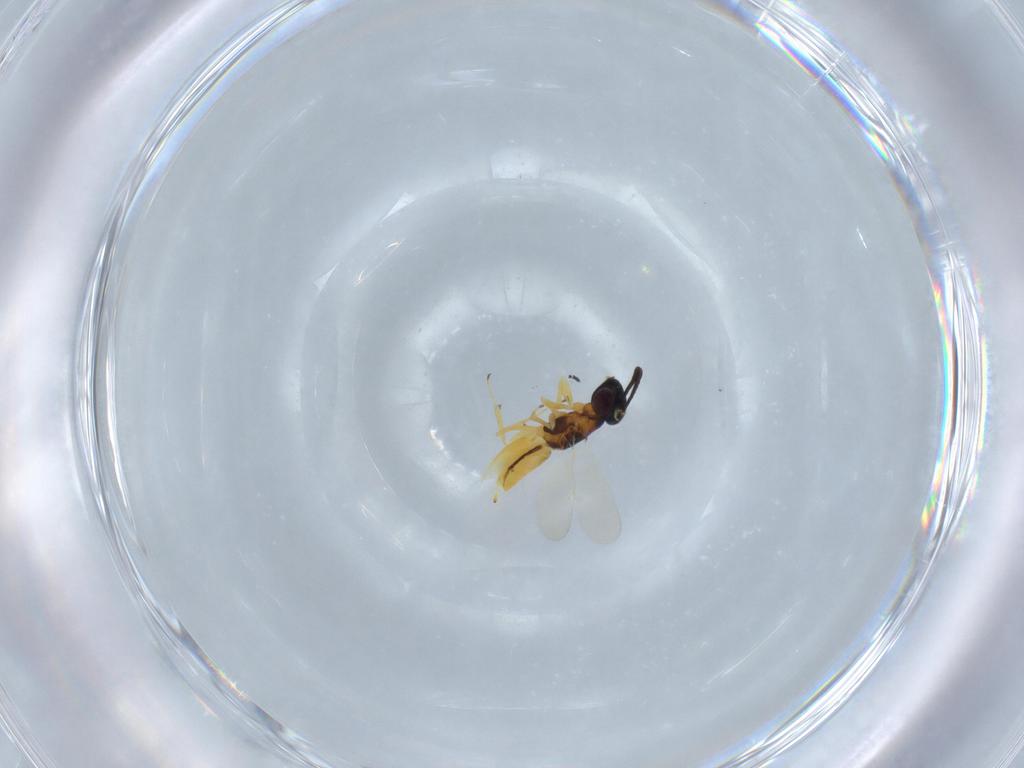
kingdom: Animalia
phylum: Arthropoda
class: Insecta
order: Hymenoptera
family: Encyrtidae
